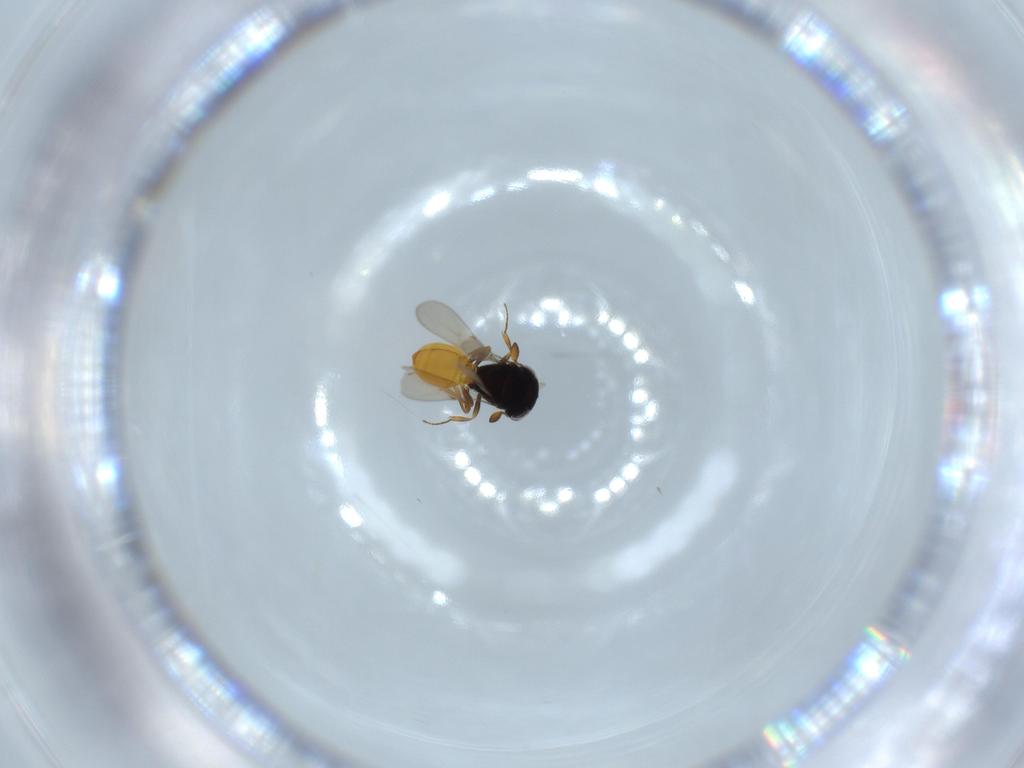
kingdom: Animalia
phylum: Arthropoda
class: Insecta
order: Hymenoptera
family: Scelionidae
